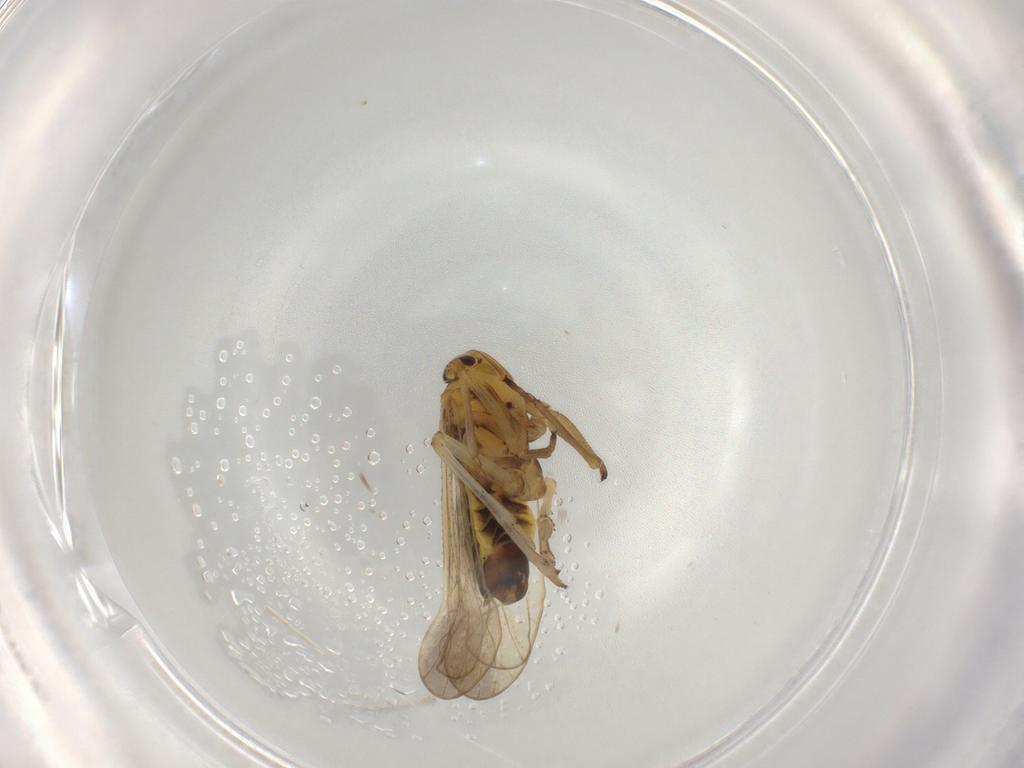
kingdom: Animalia
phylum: Arthropoda
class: Insecta
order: Hemiptera
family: Delphacidae
